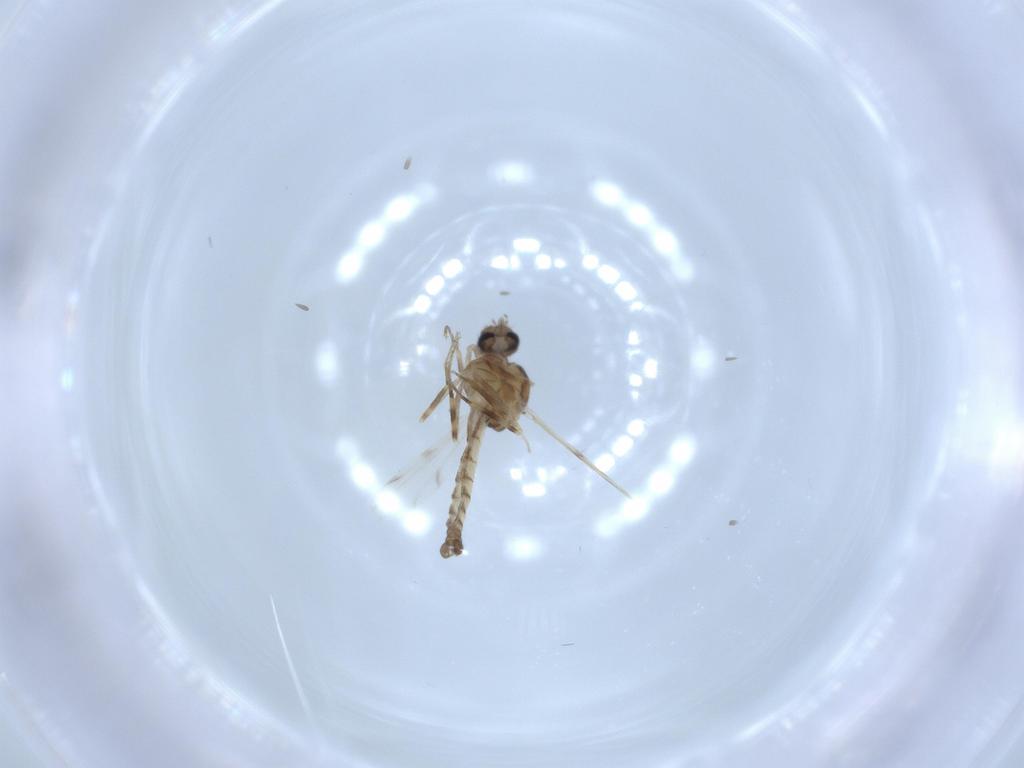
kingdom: Animalia
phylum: Arthropoda
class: Insecta
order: Diptera
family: Ceratopogonidae
